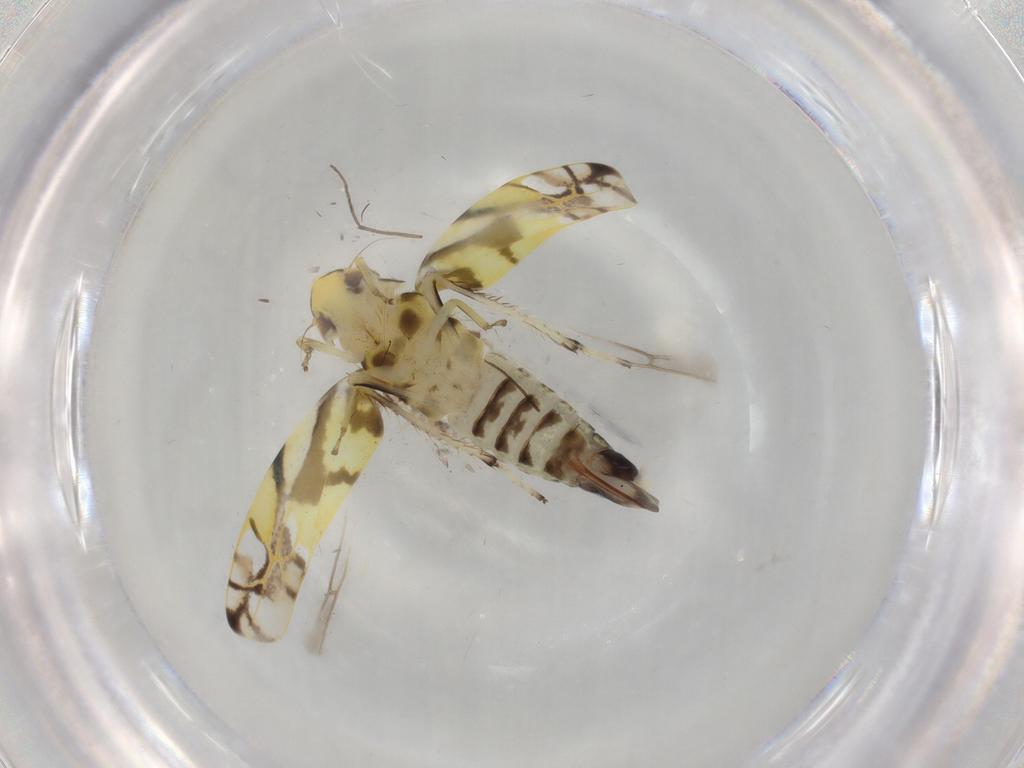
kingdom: Animalia
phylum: Arthropoda
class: Insecta
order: Hemiptera
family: Cicadellidae
